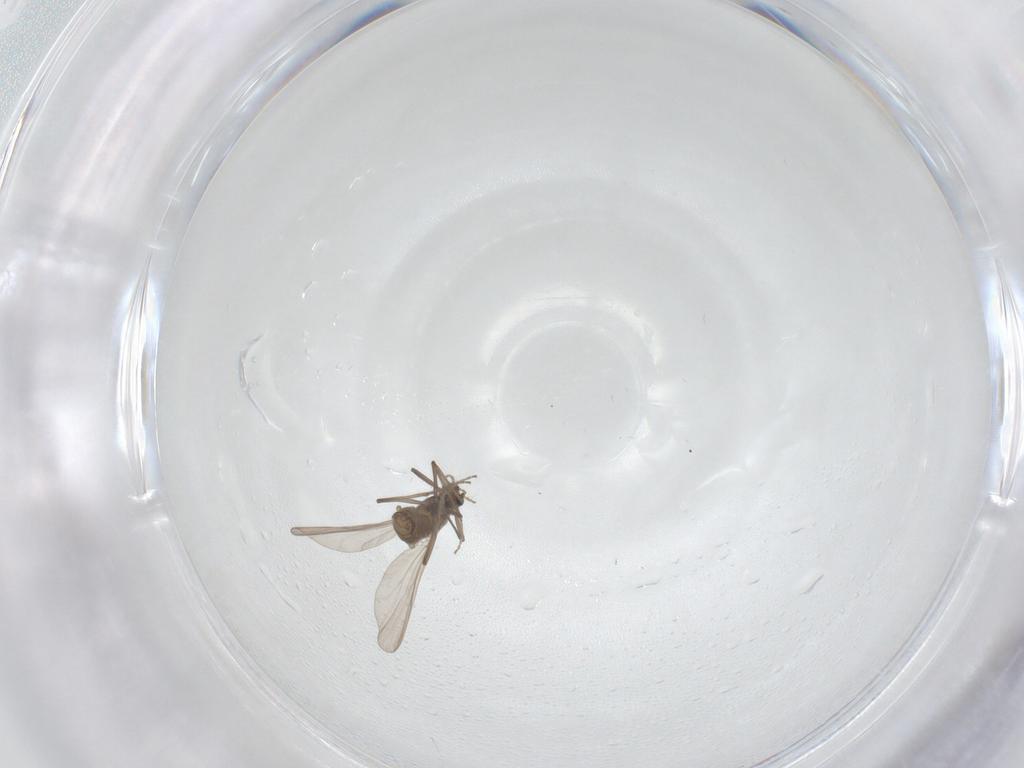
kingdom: Animalia
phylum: Arthropoda
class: Insecta
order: Diptera
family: Chironomidae
